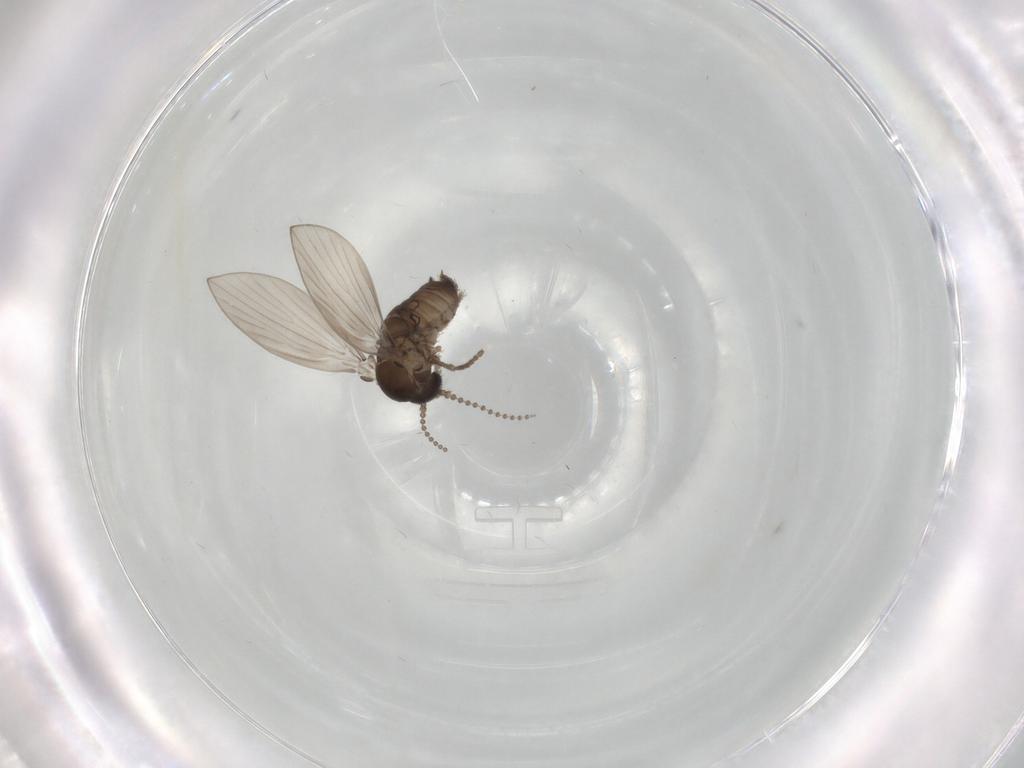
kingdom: Animalia
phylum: Arthropoda
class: Insecta
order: Diptera
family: Psychodidae
